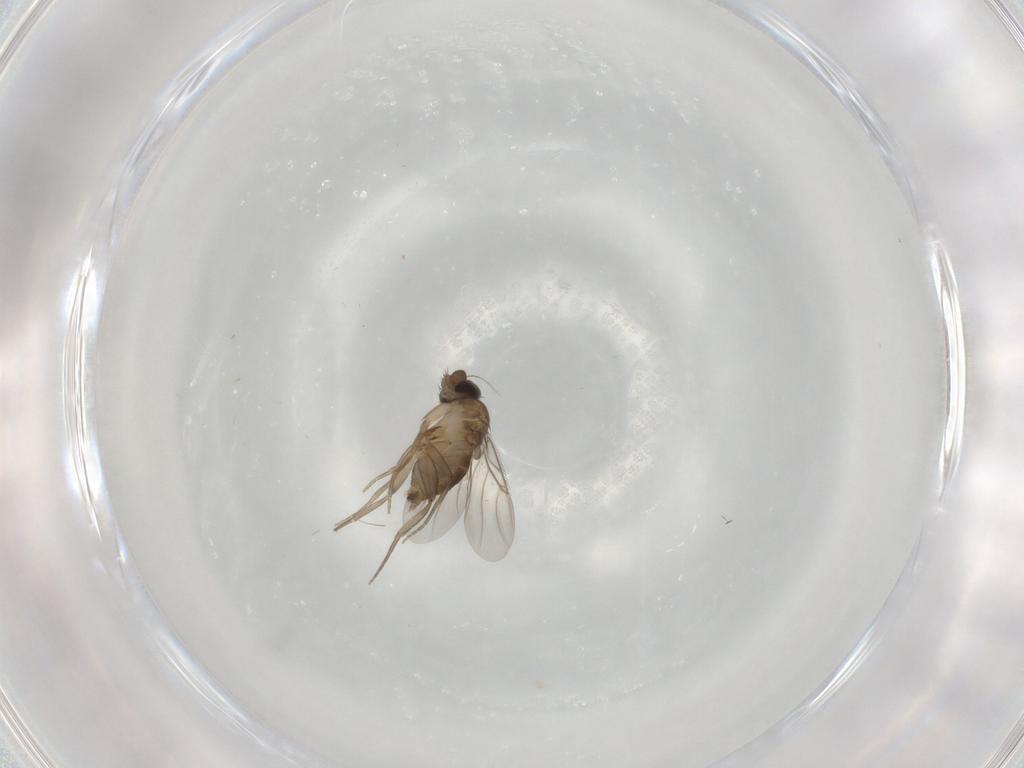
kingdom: Animalia
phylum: Arthropoda
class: Insecta
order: Diptera
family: Phoridae
